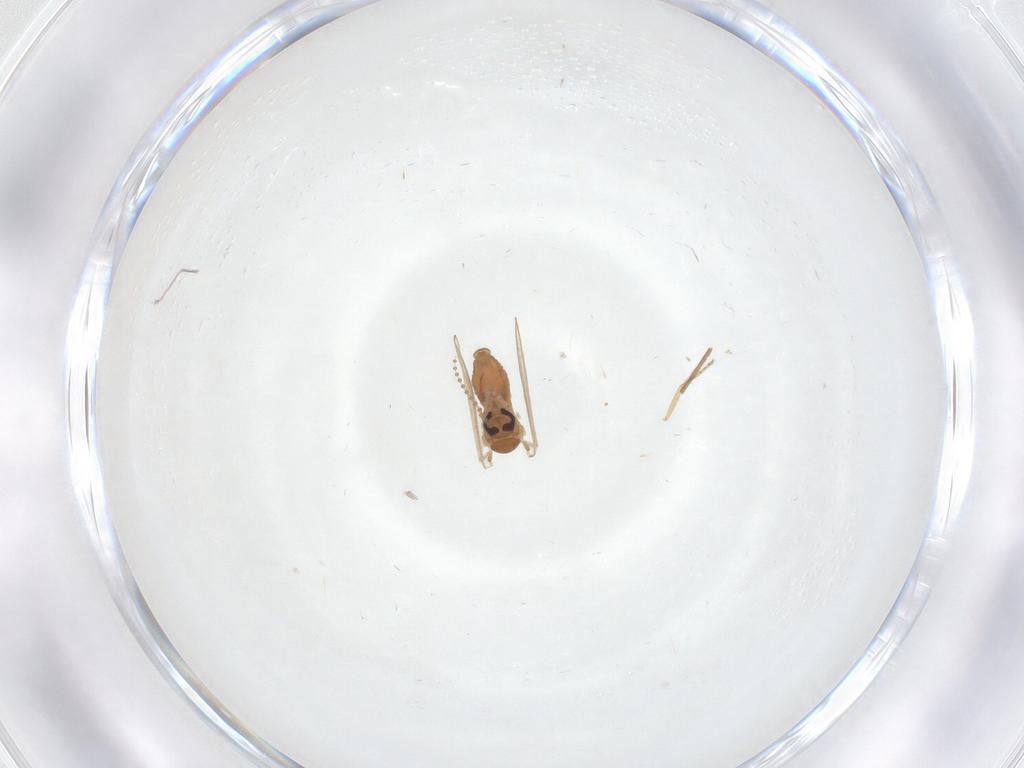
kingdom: Animalia
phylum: Arthropoda
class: Insecta
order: Diptera
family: Psychodidae
